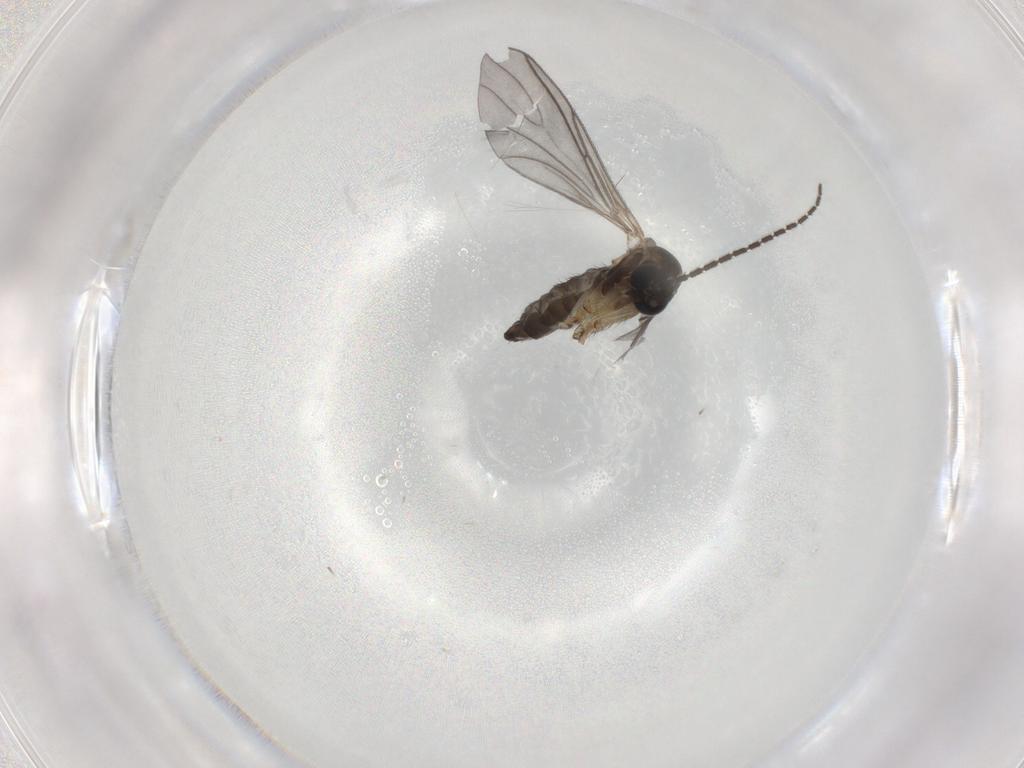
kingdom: Animalia
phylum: Arthropoda
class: Insecta
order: Diptera
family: Sciaridae
